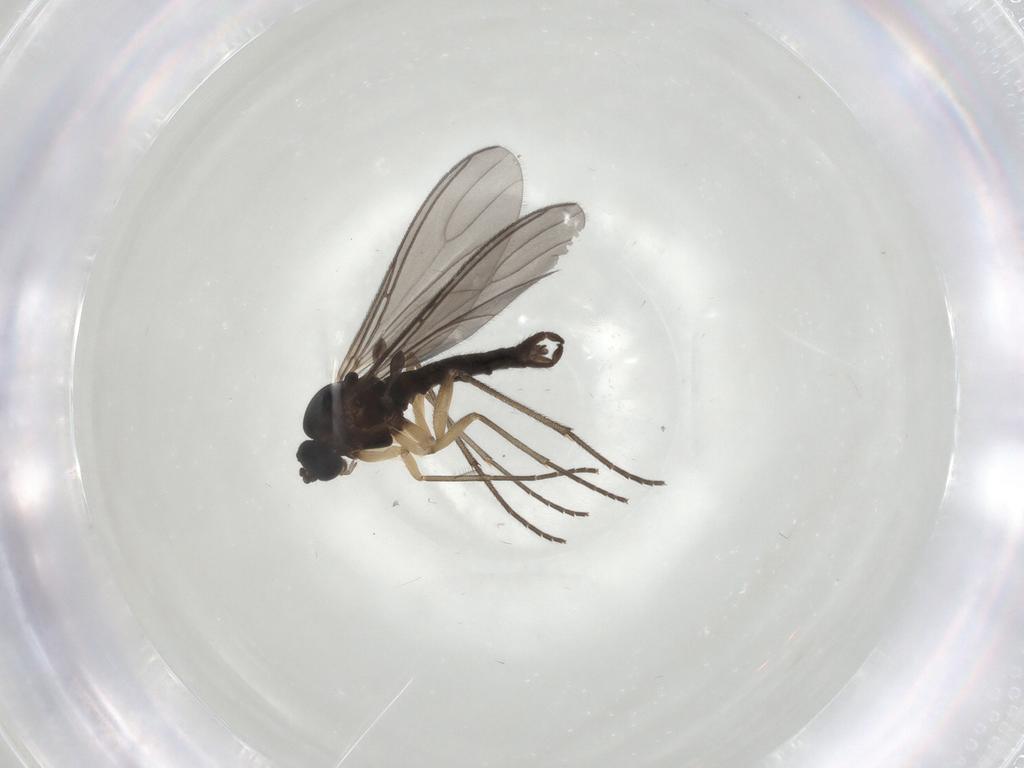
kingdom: Animalia
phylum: Arthropoda
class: Insecta
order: Diptera
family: Sciaridae
